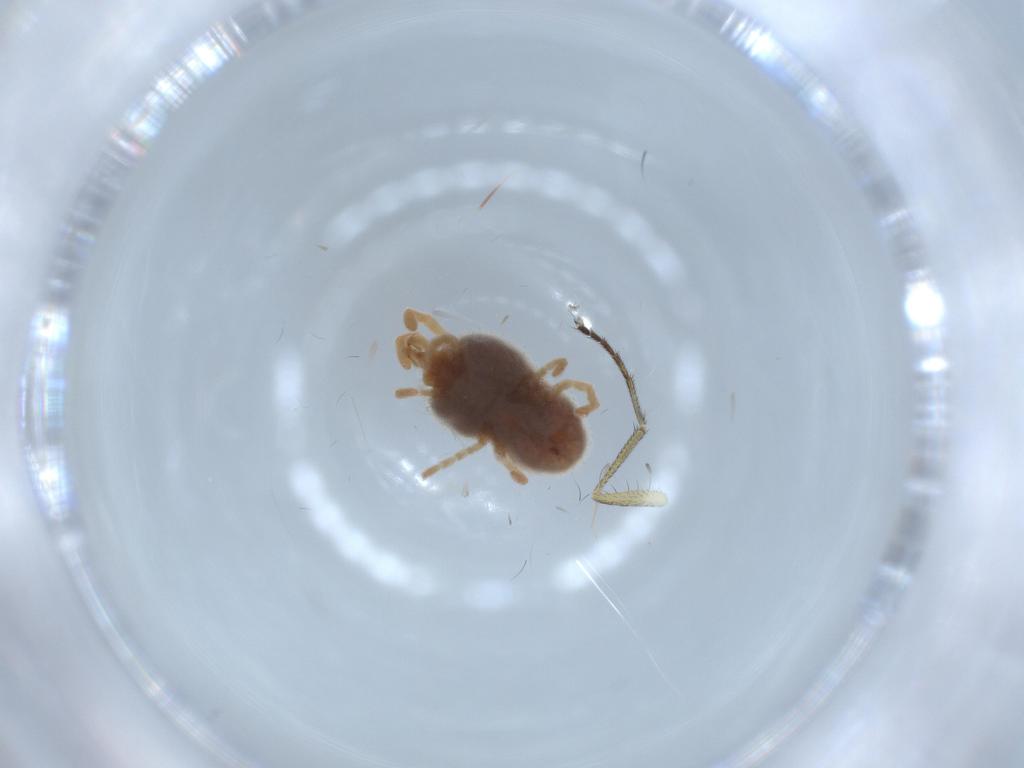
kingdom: Animalia
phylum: Arthropoda
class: Arachnida
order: Trombidiformes
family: Trombidiidae
